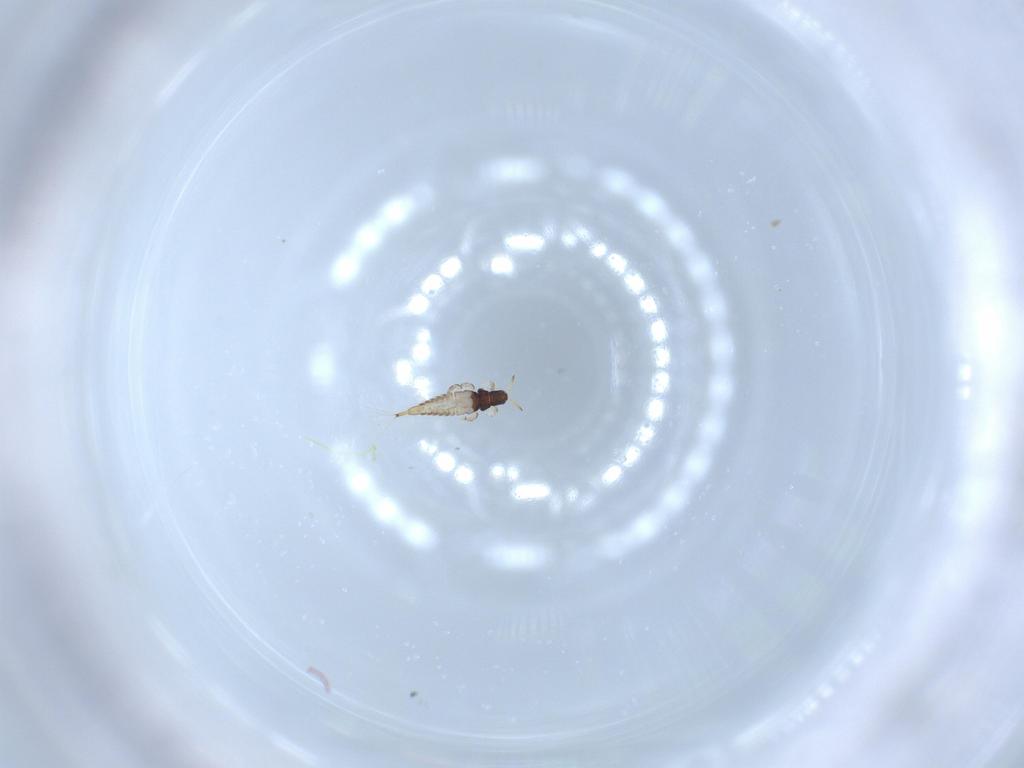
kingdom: Animalia
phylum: Arthropoda
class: Insecta
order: Thysanoptera
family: Phlaeothripidae
